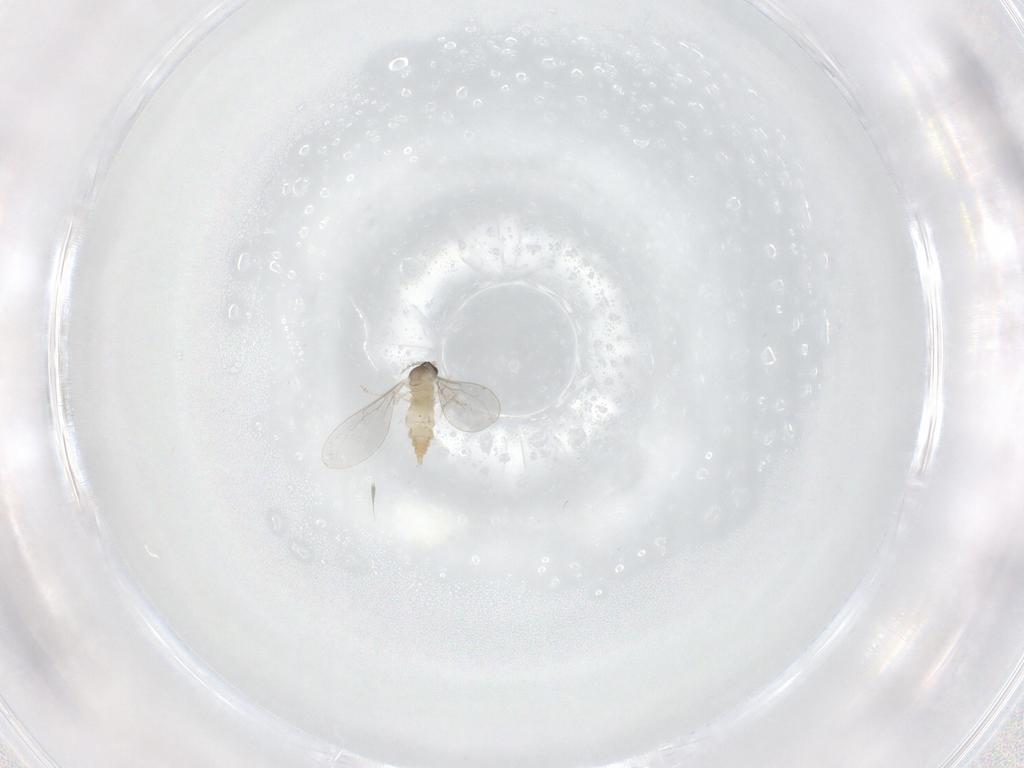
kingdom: Animalia
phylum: Arthropoda
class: Insecta
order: Diptera
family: Cecidomyiidae
